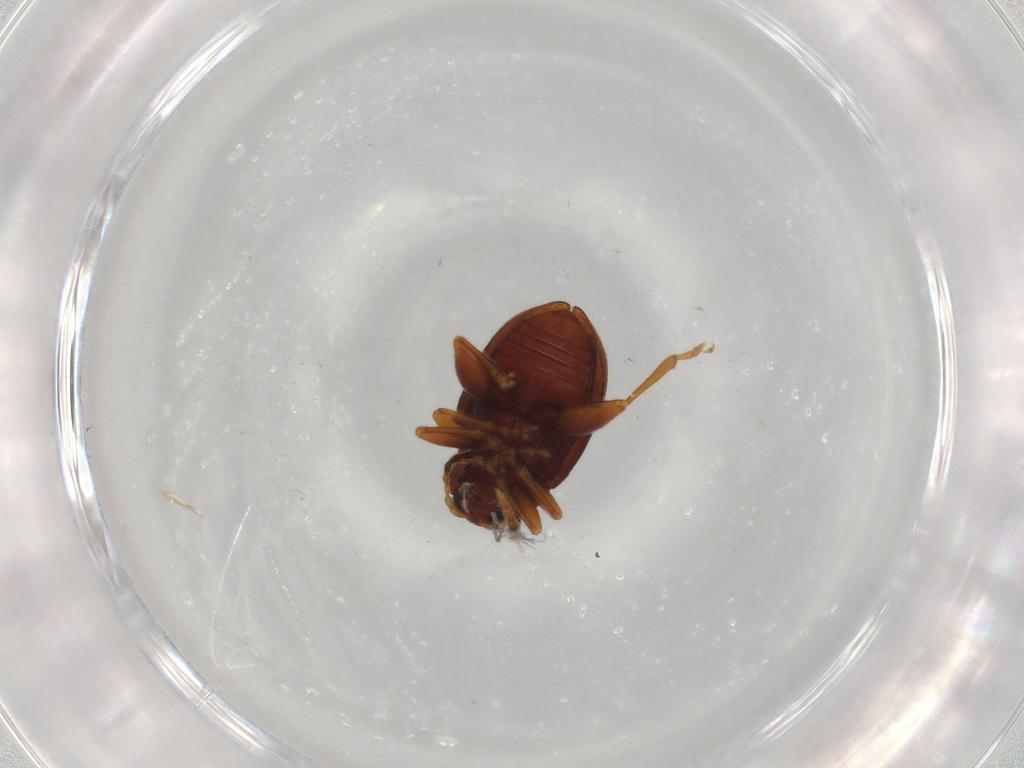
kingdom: Animalia
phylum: Arthropoda
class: Insecta
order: Coleoptera
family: Chrysomelidae
